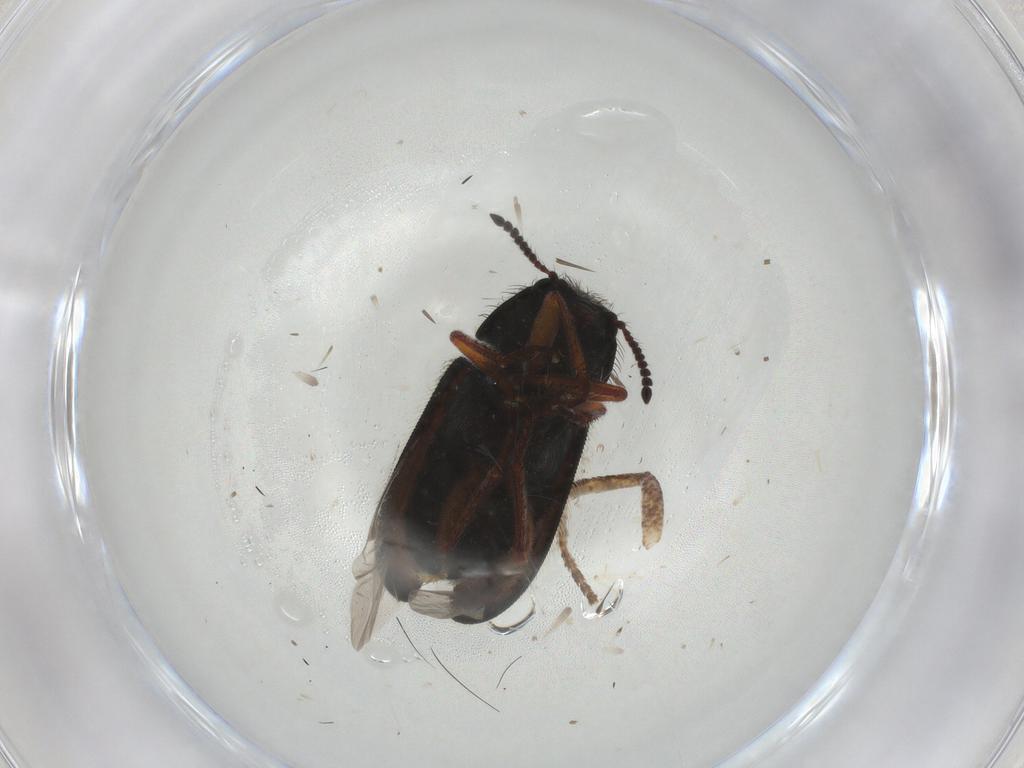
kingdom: Animalia
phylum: Arthropoda
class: Insecta
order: Coleoptera
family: Melyridae
